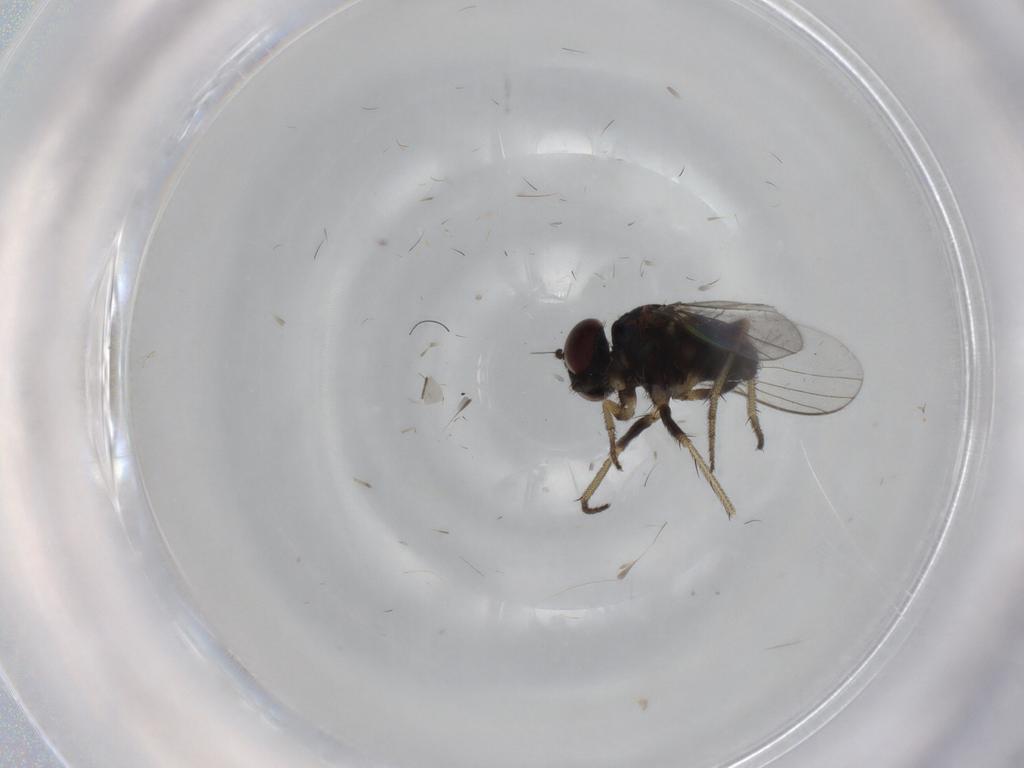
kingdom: Animalia
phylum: Arthropoda
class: Insecta
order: Diptera
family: Dolichopodidae
